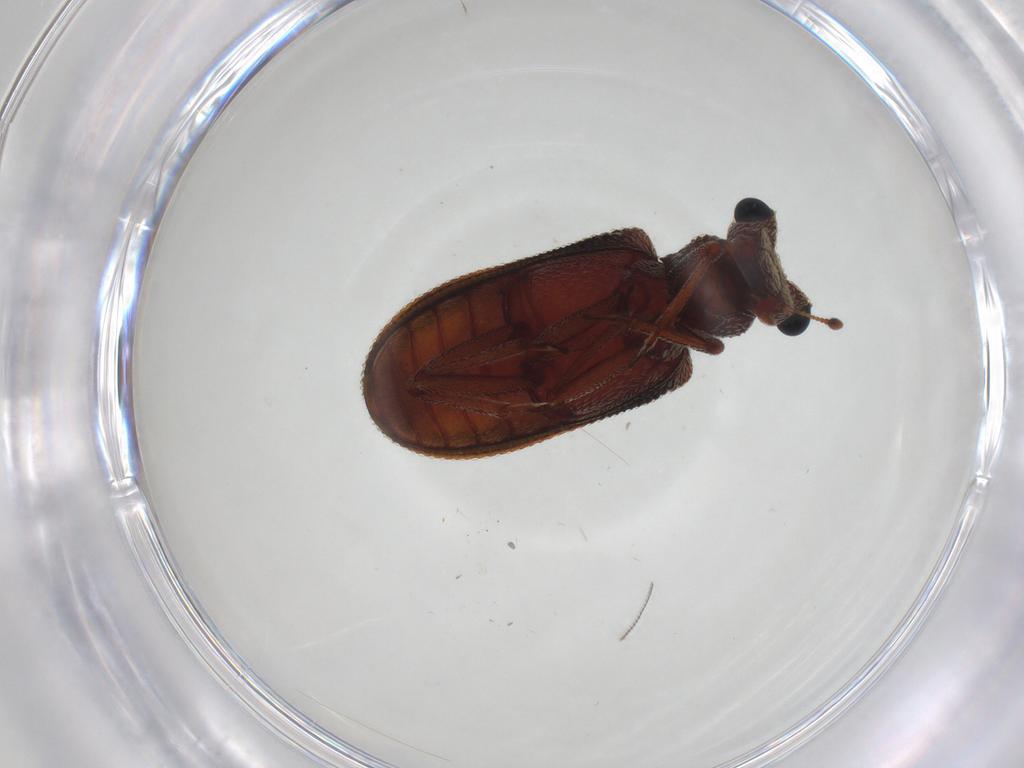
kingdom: Animalia
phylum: Arthropoda
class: Insecta
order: Coleoptera
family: Zopheridae
